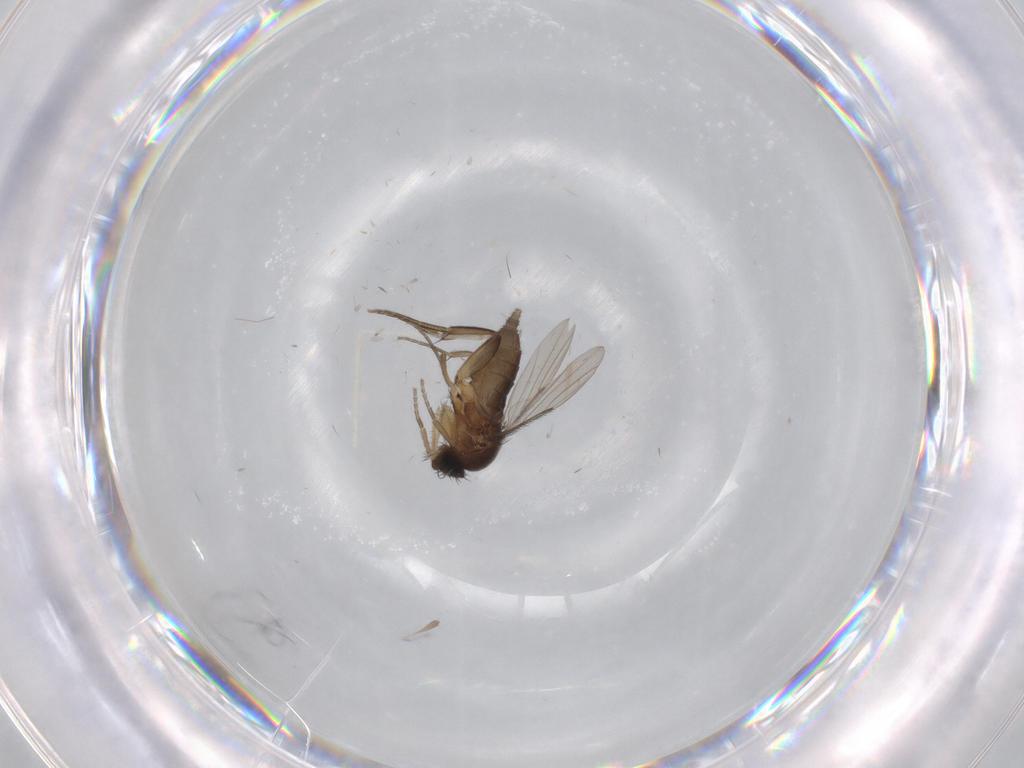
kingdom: Animalia
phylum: Arthropoda
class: Insecta
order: Diptera
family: Phoridae
